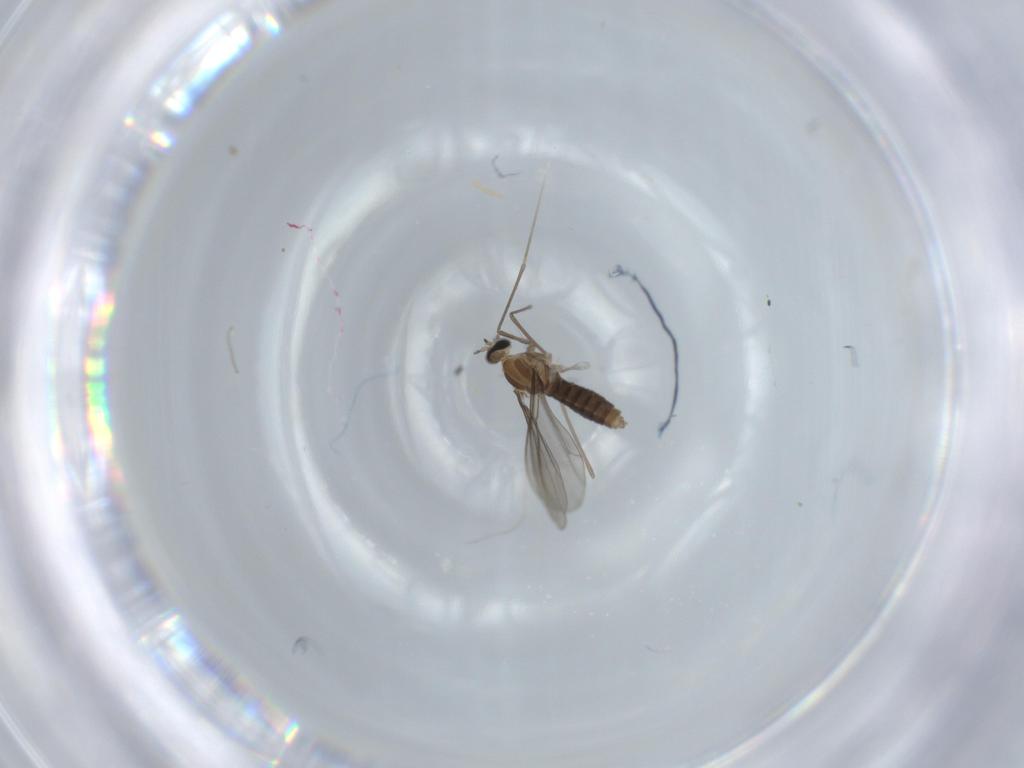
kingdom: Animalia
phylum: Arthropoda
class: Insecta
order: Diptera
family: Cecidomyiidae
